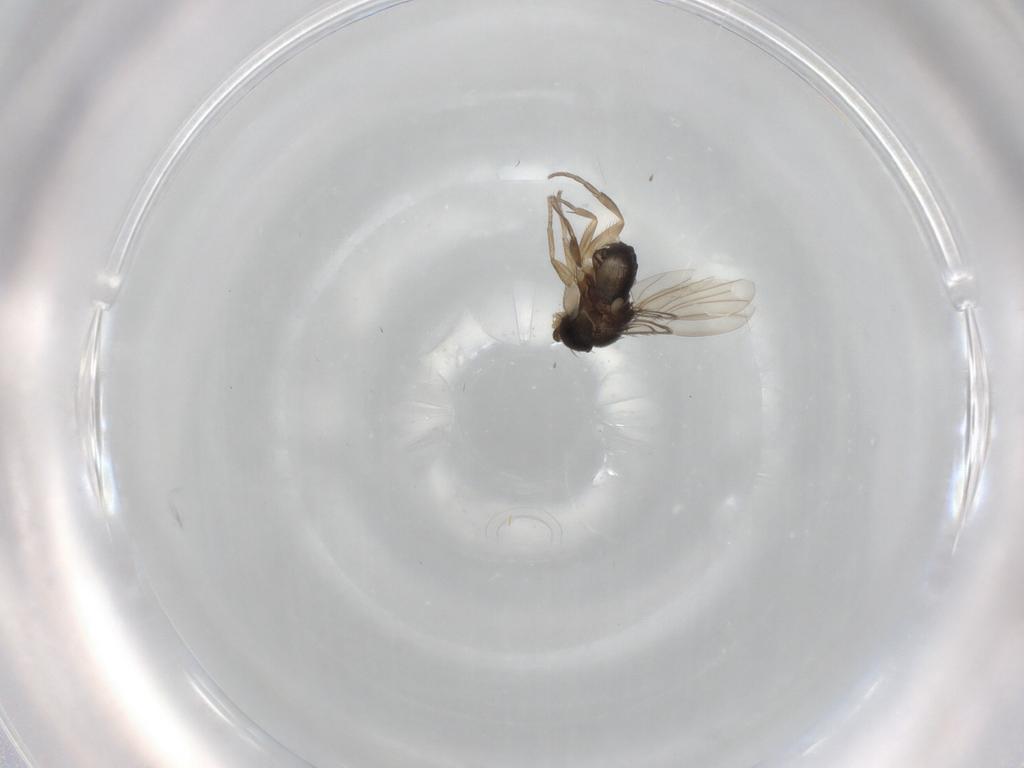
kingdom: Animalia
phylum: Arthropoda
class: Insecta
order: Diptera
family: Phoridae
